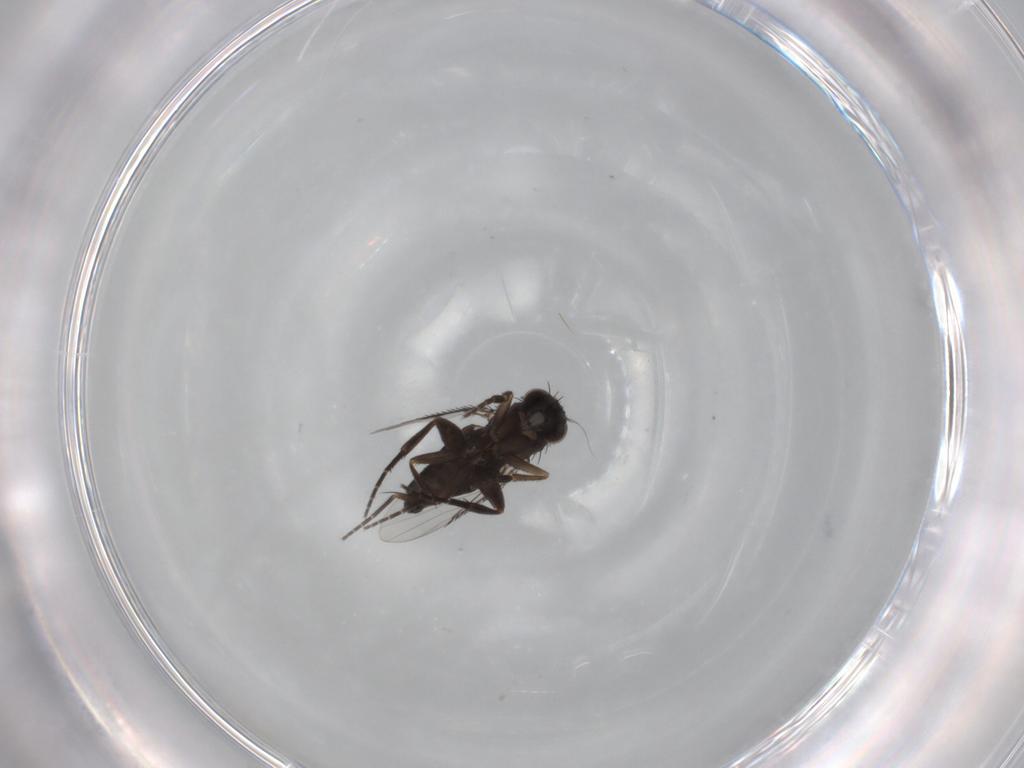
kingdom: Animalia
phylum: Arthropoda
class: Insecta
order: Diptera
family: Phoridae
